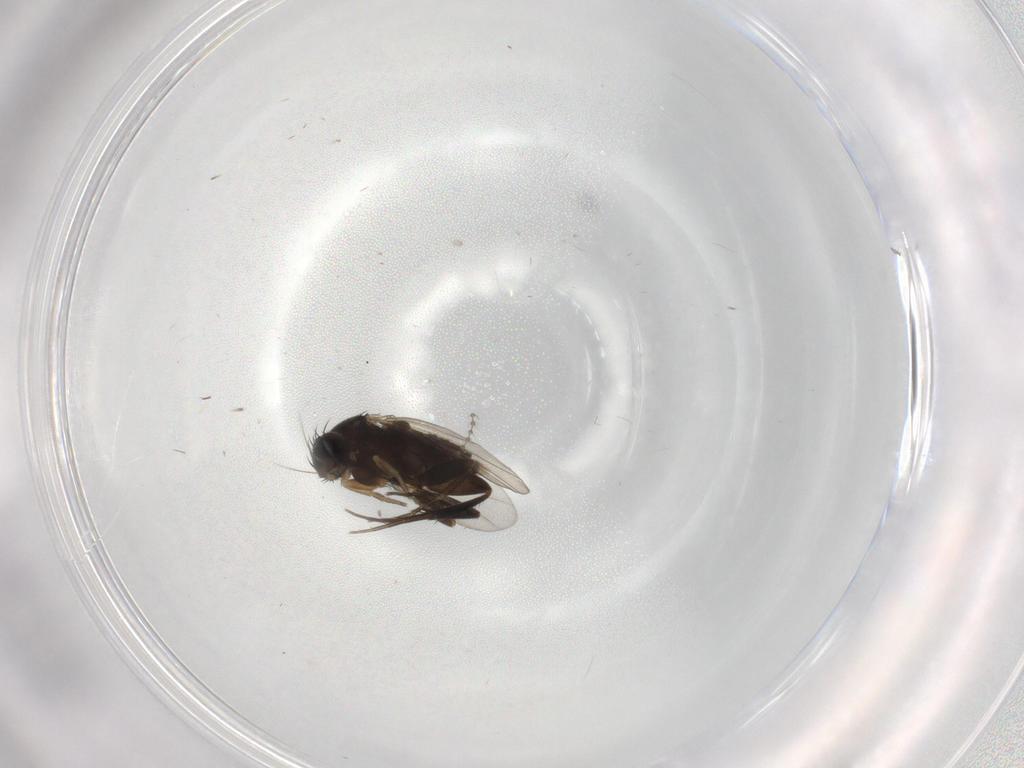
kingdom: Animalia
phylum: Arthropoda
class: Insecta
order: Diptera
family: Phoridae
